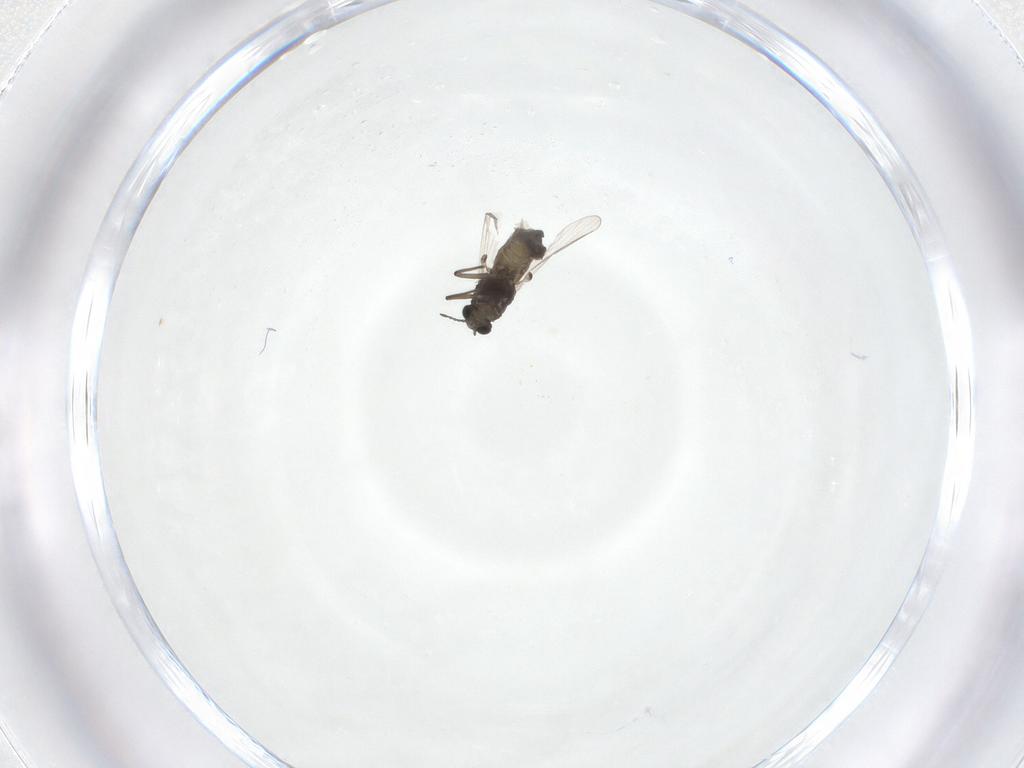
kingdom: Animalia
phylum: Arthropoda
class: Insecta
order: Diptera
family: Chironomidae
